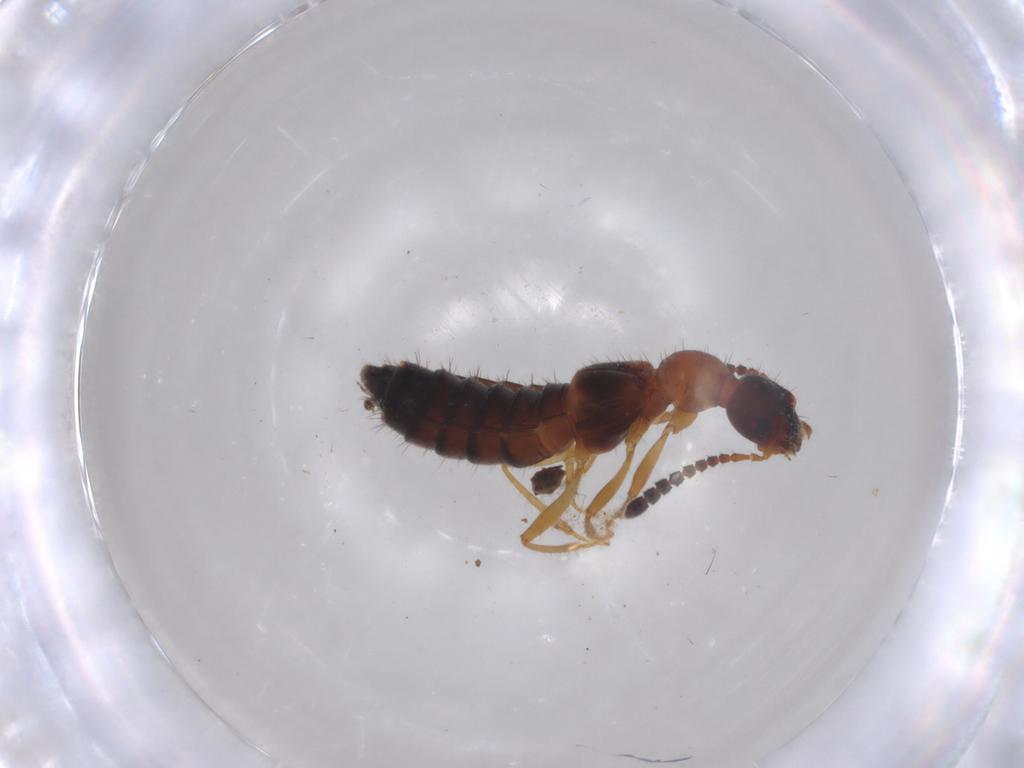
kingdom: Animalia
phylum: Arthropoda
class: Insecta
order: Coleoptera
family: Staphylinidae
